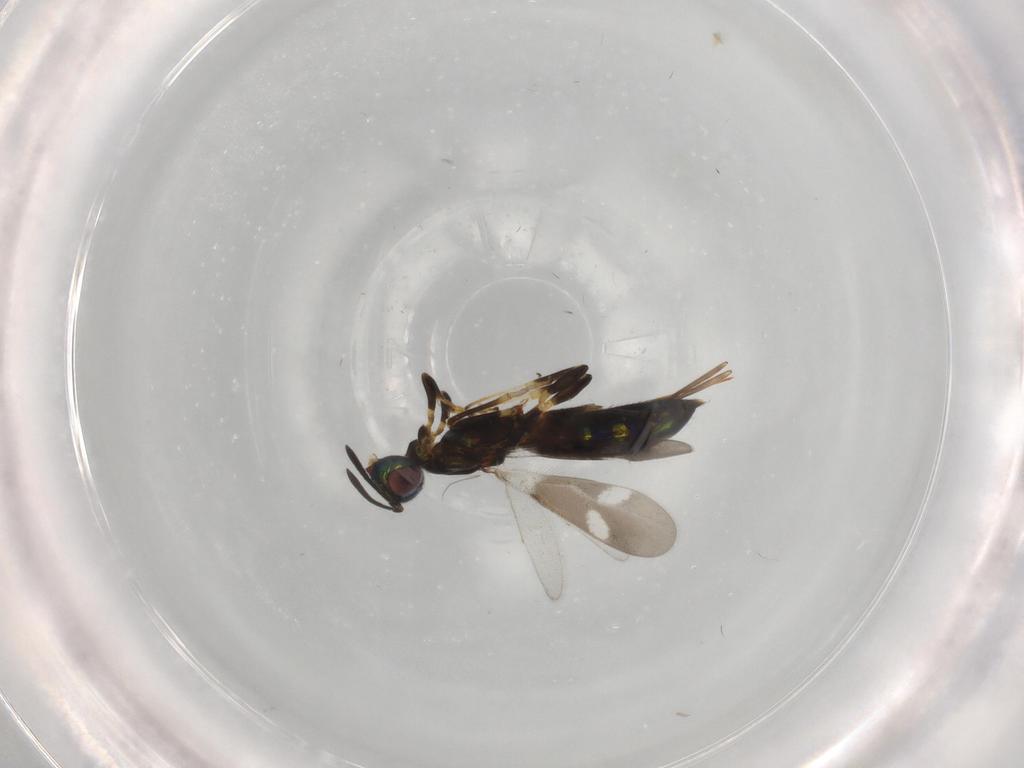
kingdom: Animalia
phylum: Arthropoda
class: Insecta
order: Hymenoptera
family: Eupelmidae
